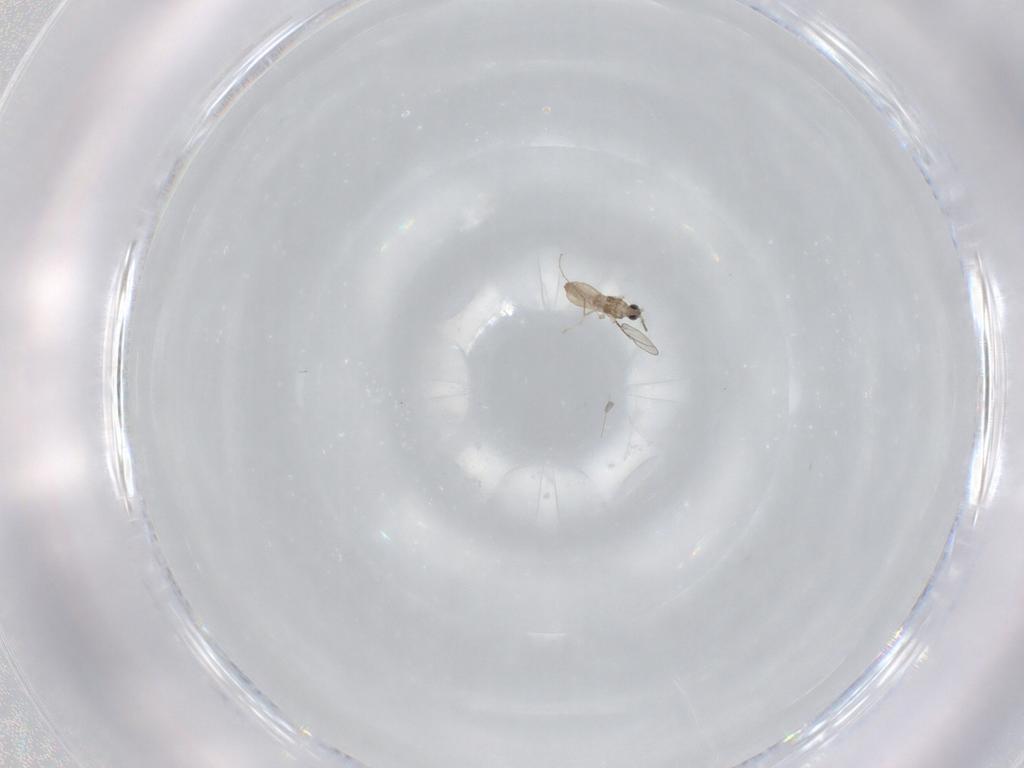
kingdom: Animalia
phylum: Arthropoda
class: Insecta
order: Diptera
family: Cecidomyiidae
